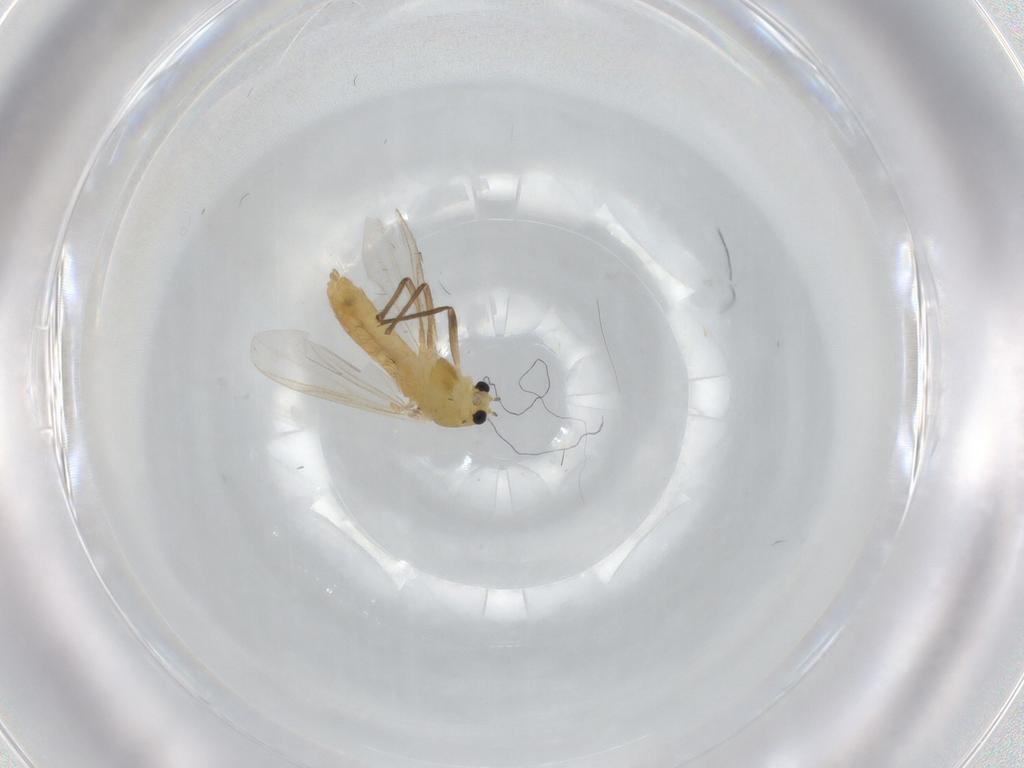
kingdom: Animalia
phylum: Arthropoda
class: Insecta
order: Diptera
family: Chironomidae
